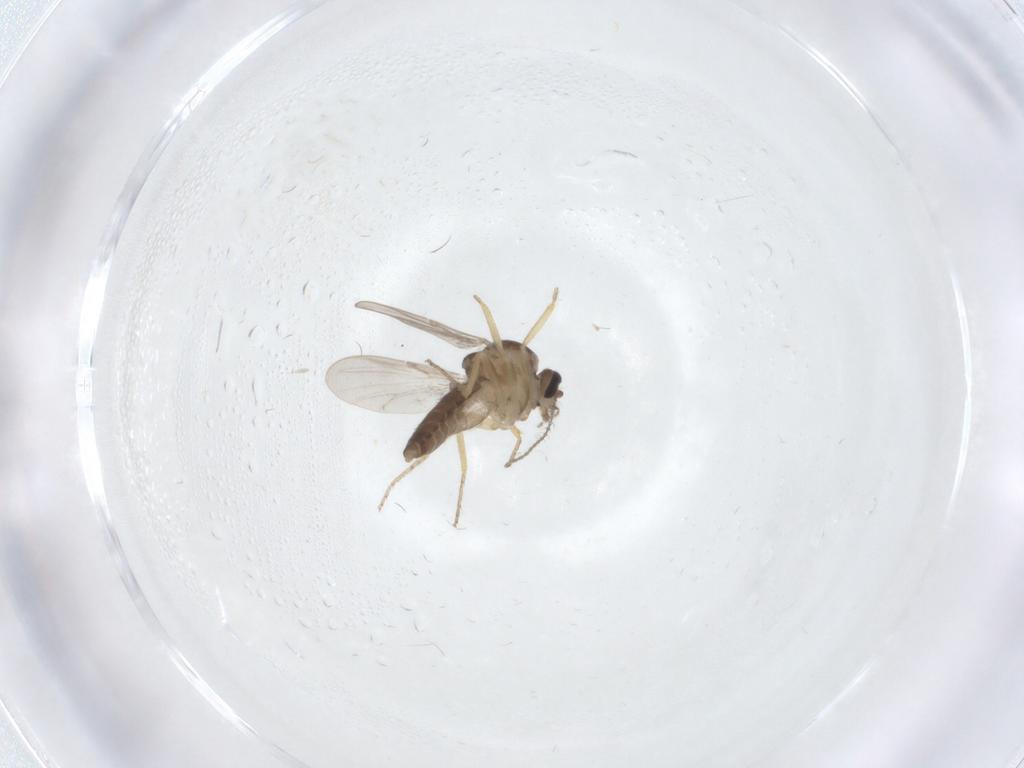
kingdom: Animalia
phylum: Arthropoda
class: Insecta
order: Diptera
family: Ceratopogonidae
